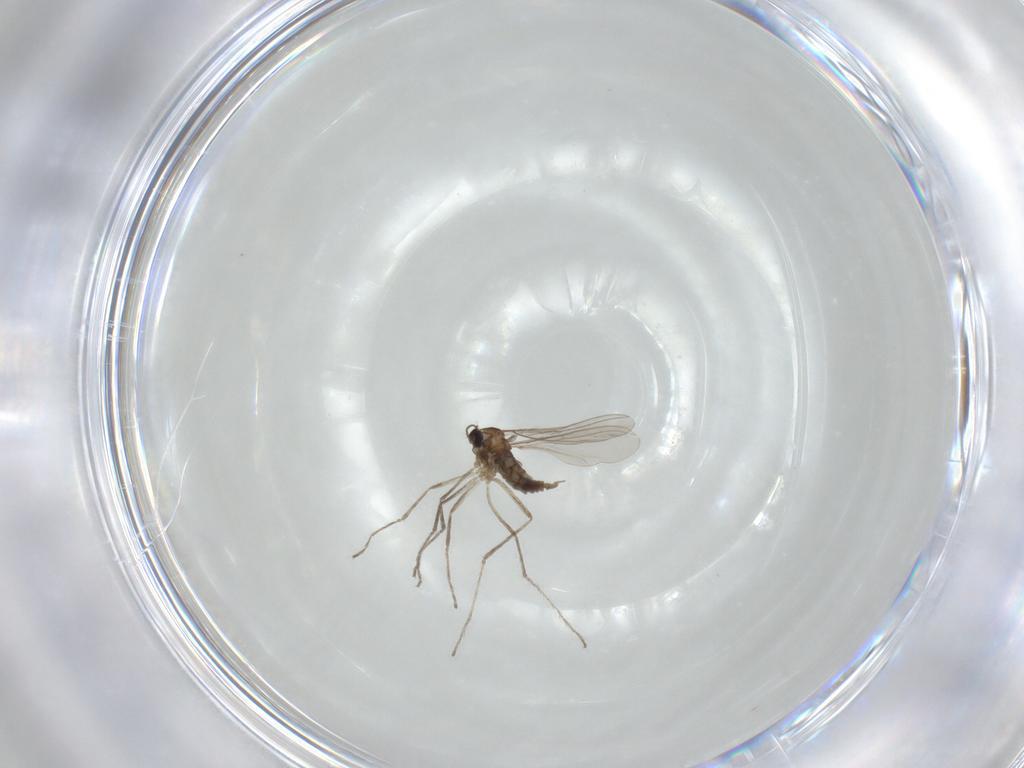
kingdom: Animalia
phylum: Arthropoda
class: Insecta
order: Diptera
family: Cecidomyiidae
